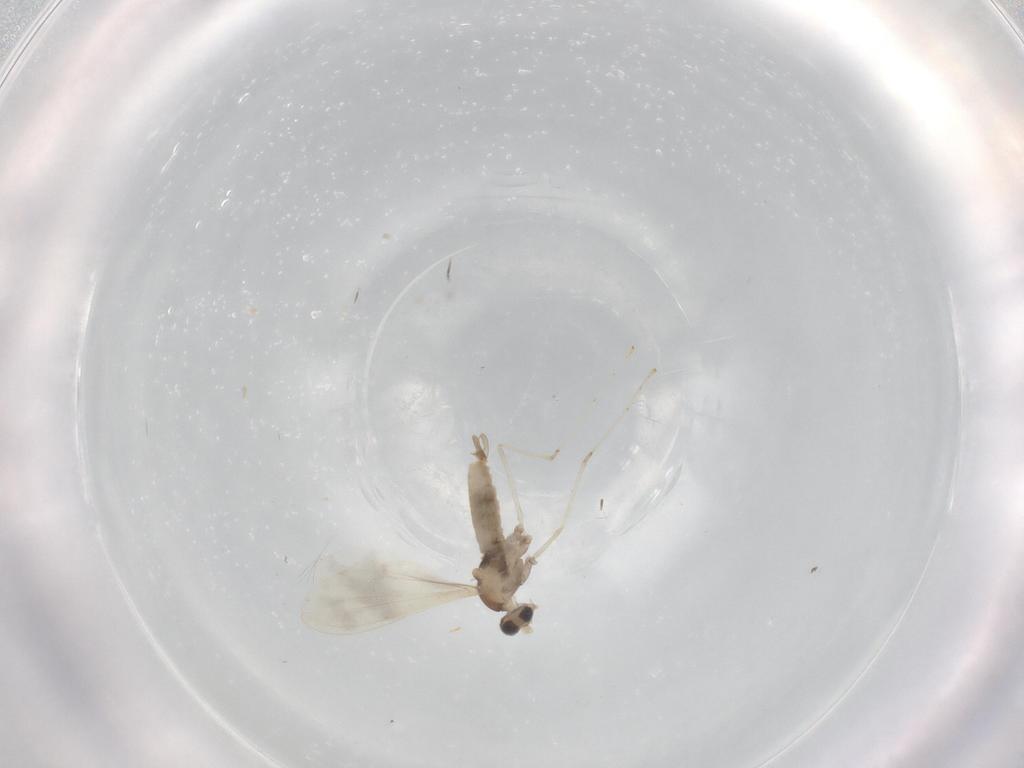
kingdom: Animalia
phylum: Arthropoda
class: Insecta
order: Diptera
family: Cecidomyiidae
